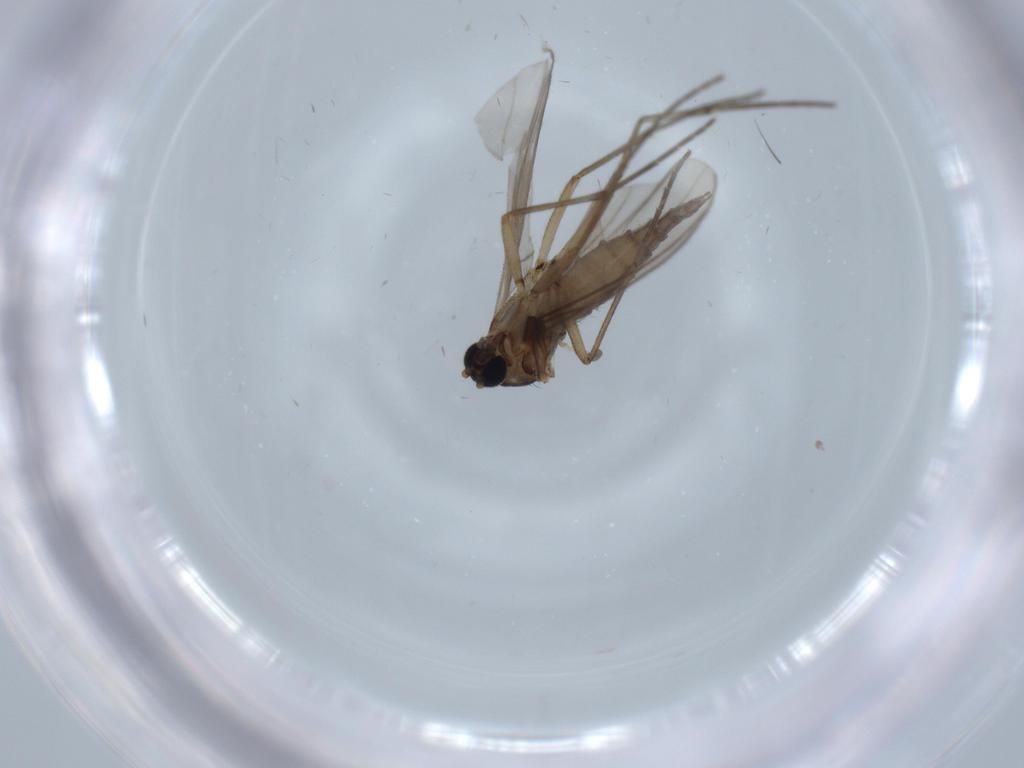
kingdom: Animalia
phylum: Arthropoda
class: Insecta
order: Diptera
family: Sciaridae
